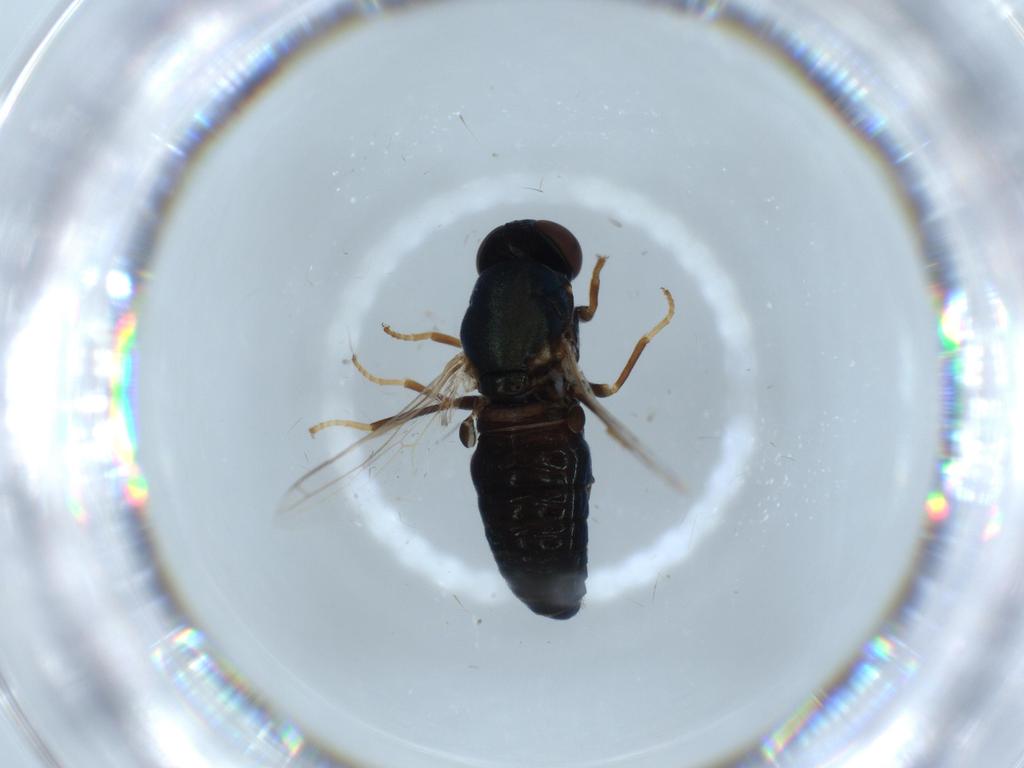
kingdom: Animalia
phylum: Arthropoda
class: Insecta
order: Diptera
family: Scenopinidae
